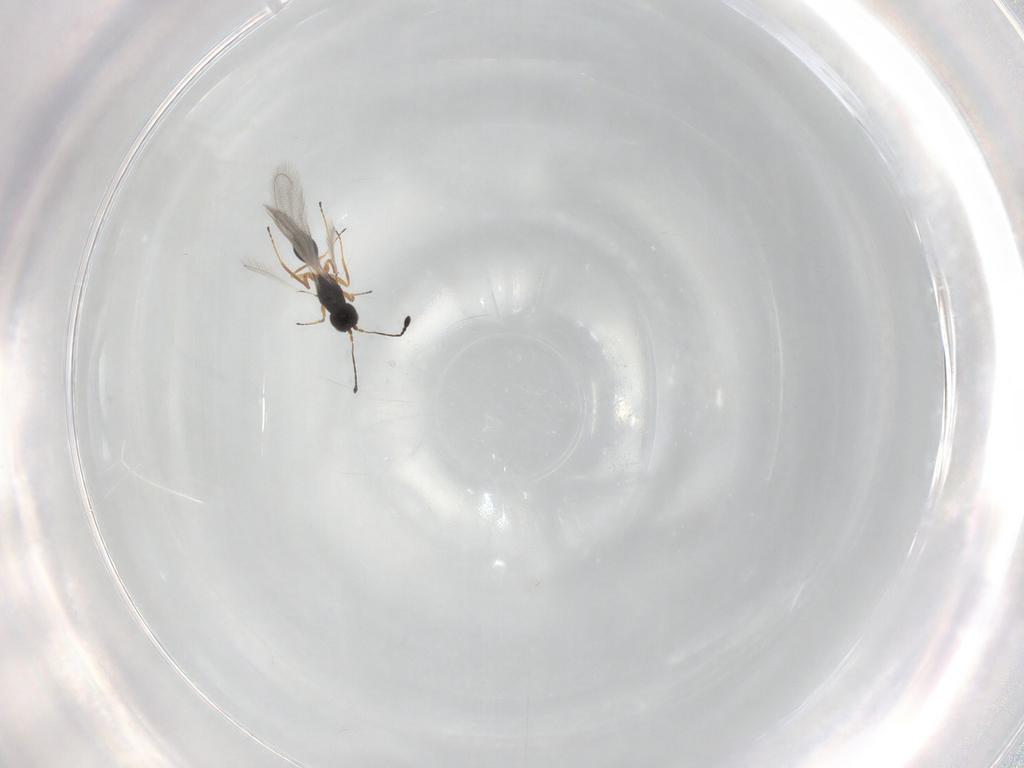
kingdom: Animalia
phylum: Arthropoda
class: Insecta
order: Hymenoptera
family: Mymaridae
